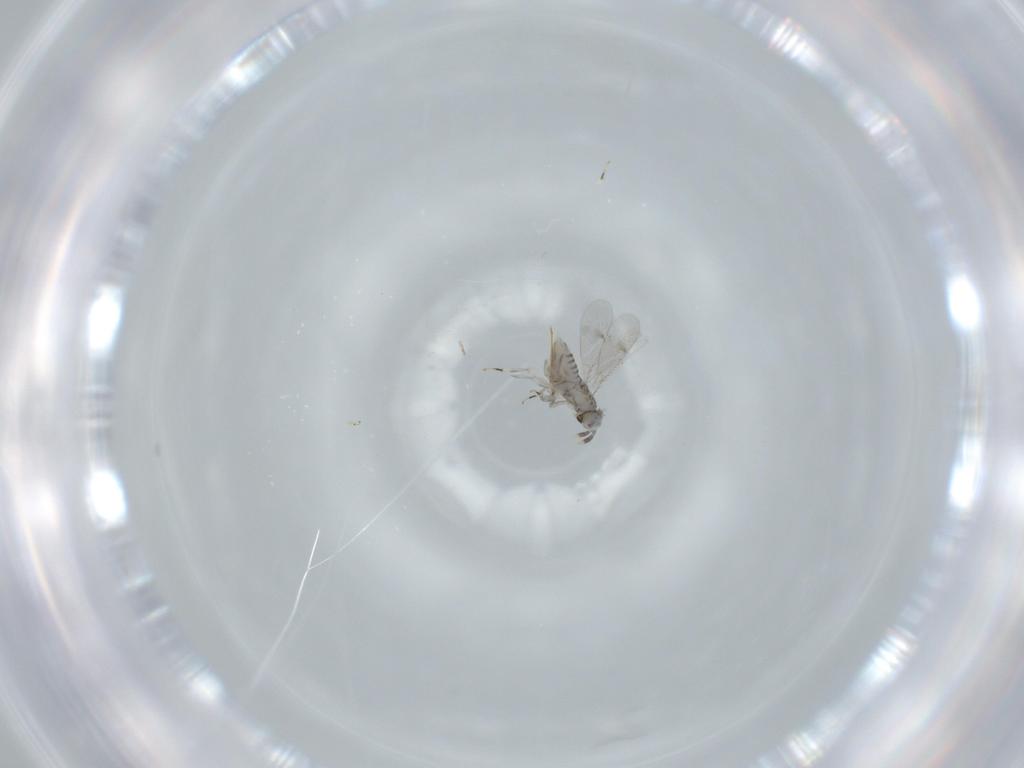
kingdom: Animalia
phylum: Arthropoda
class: Insecta
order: Hymenoptera
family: Aphelinidae
